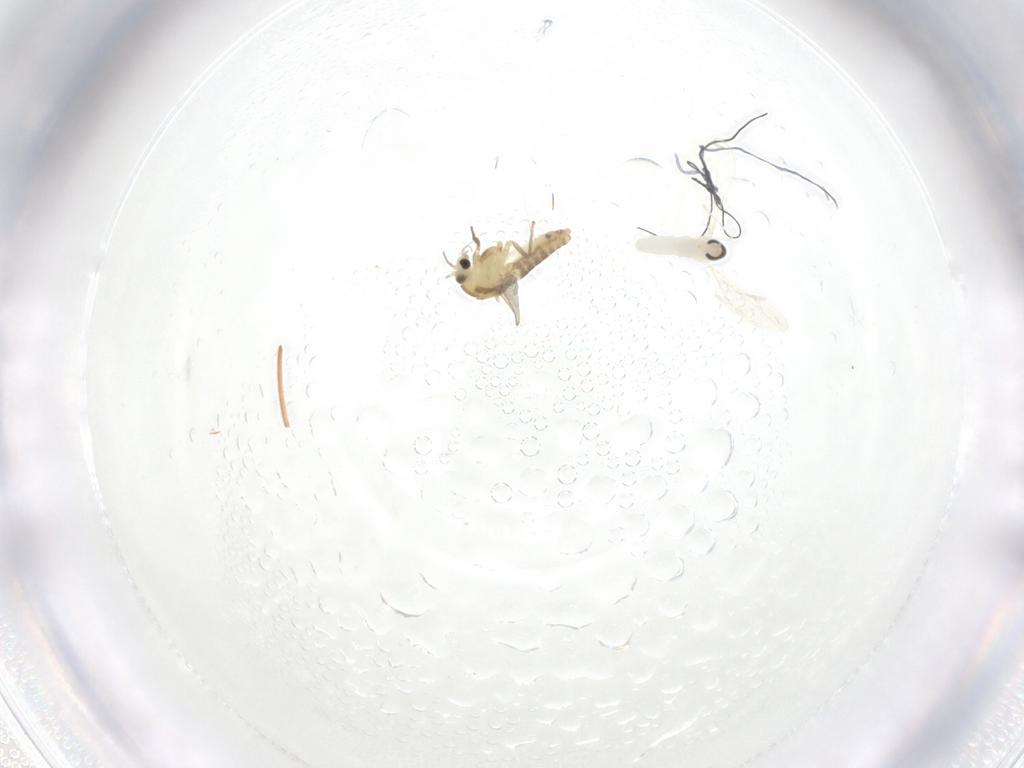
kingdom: Animalia
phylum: Arthropoda
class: Insecta
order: Diptera
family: Chironomidae
